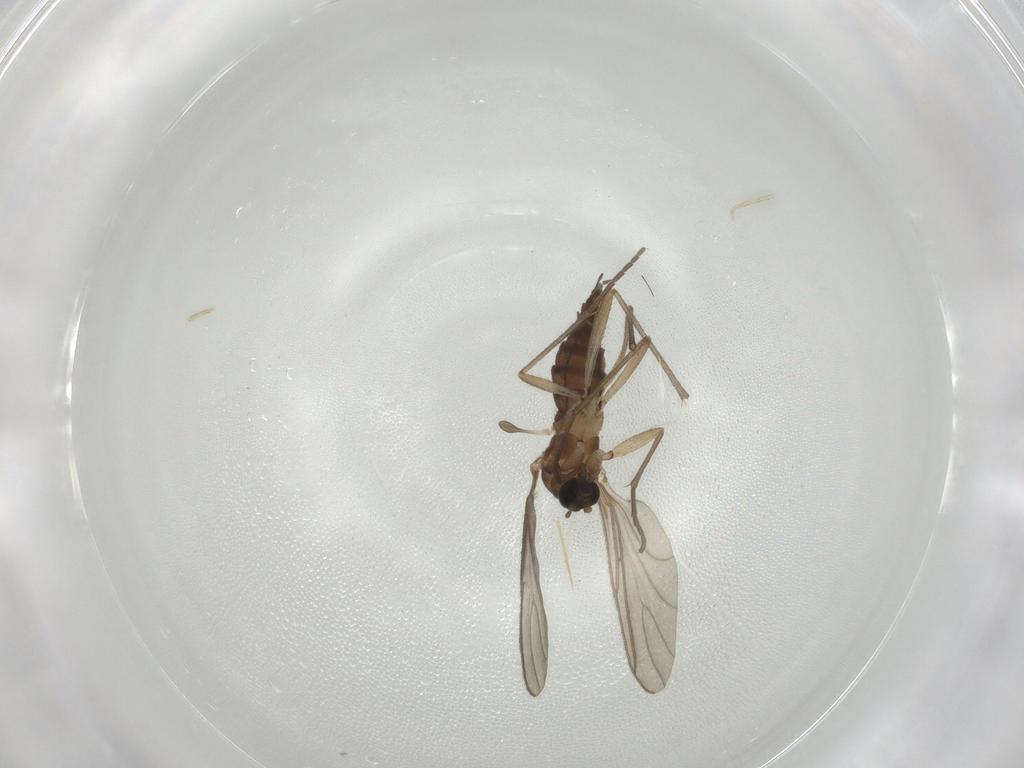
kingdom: Animalia
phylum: Arthropoda
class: Insecta
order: Diptera
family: Sciaridae
